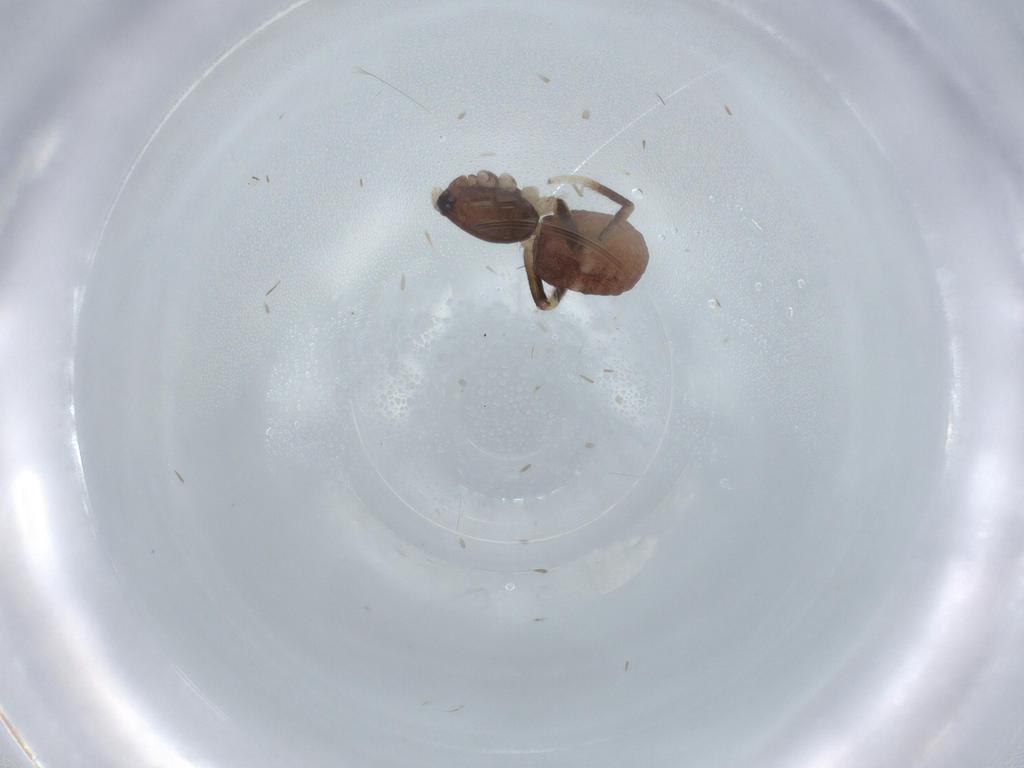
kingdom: Animalia
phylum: Arthropoda
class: Arachnida
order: Araneae
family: Corinnidae
